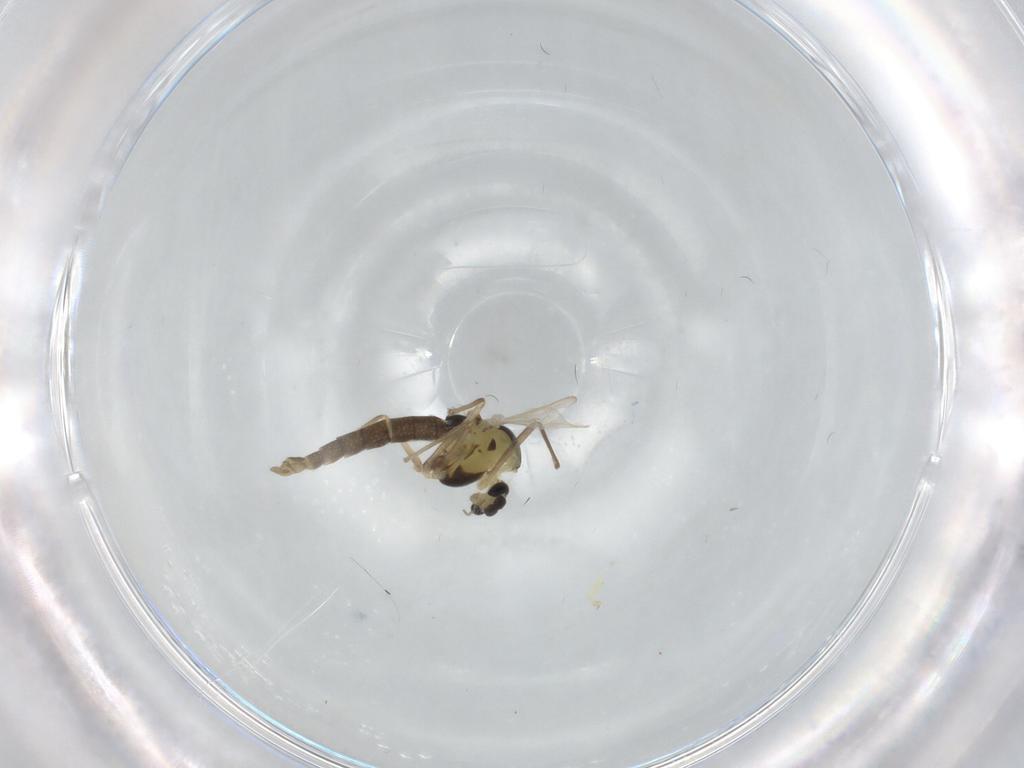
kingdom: Animalia
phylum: Arthropoda
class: Insecta
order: Diptera
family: Chironomidae
